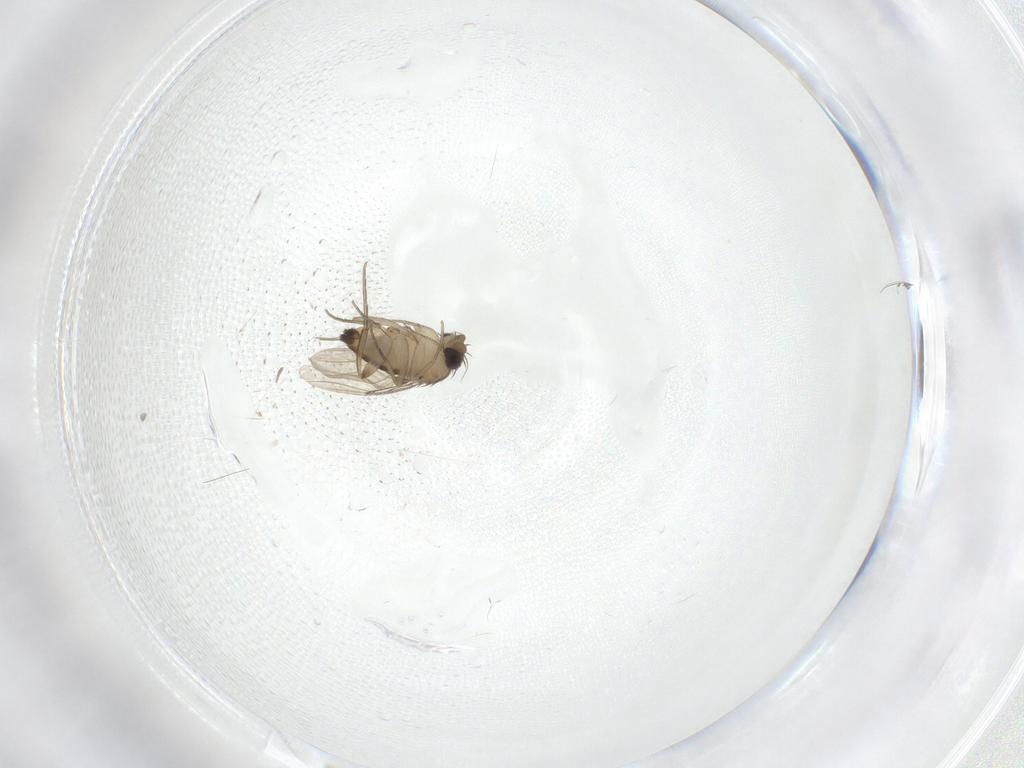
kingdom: Animalia
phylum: Arthropoda
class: Insecta
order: Diptera
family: Phoridae
